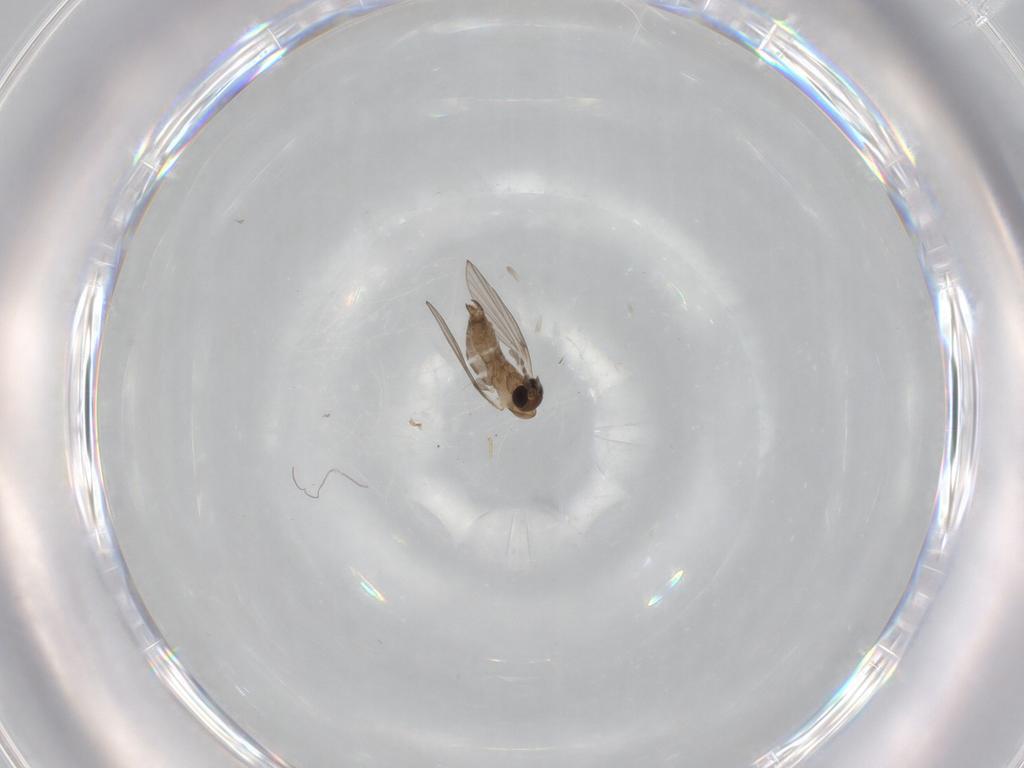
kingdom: Animalia
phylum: Arthropoda
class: Insecta
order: Diptera
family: Psychodidae
